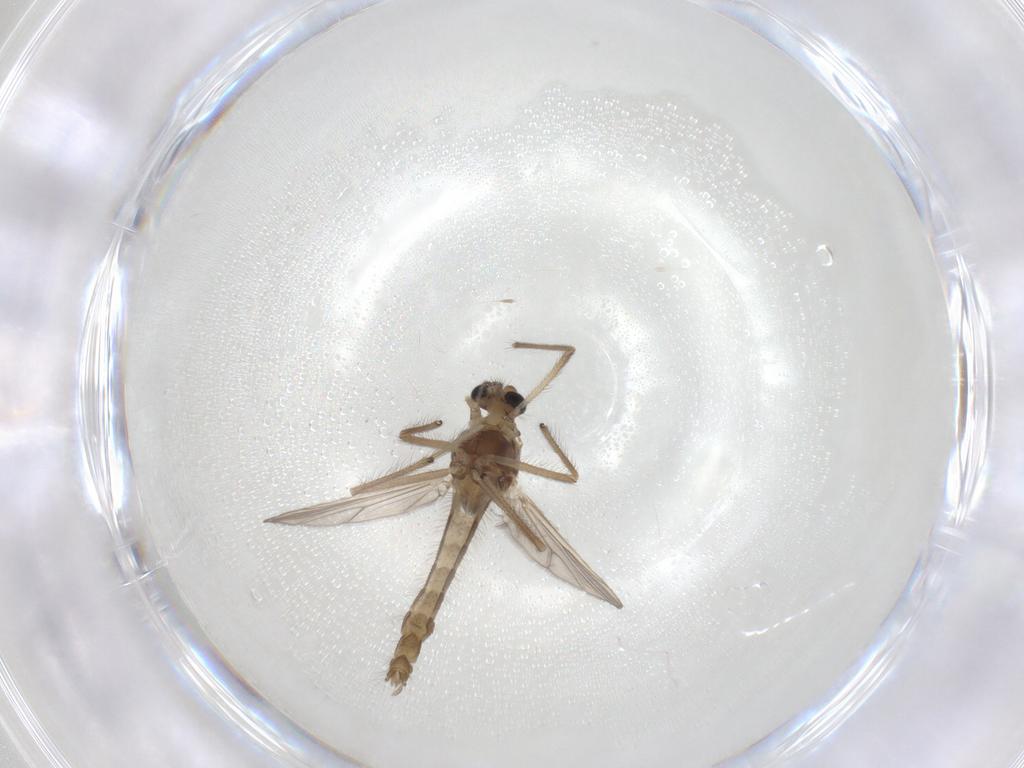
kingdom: Animalia
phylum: Arthropoda
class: Insecta
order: Diptera
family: Chironomidae
